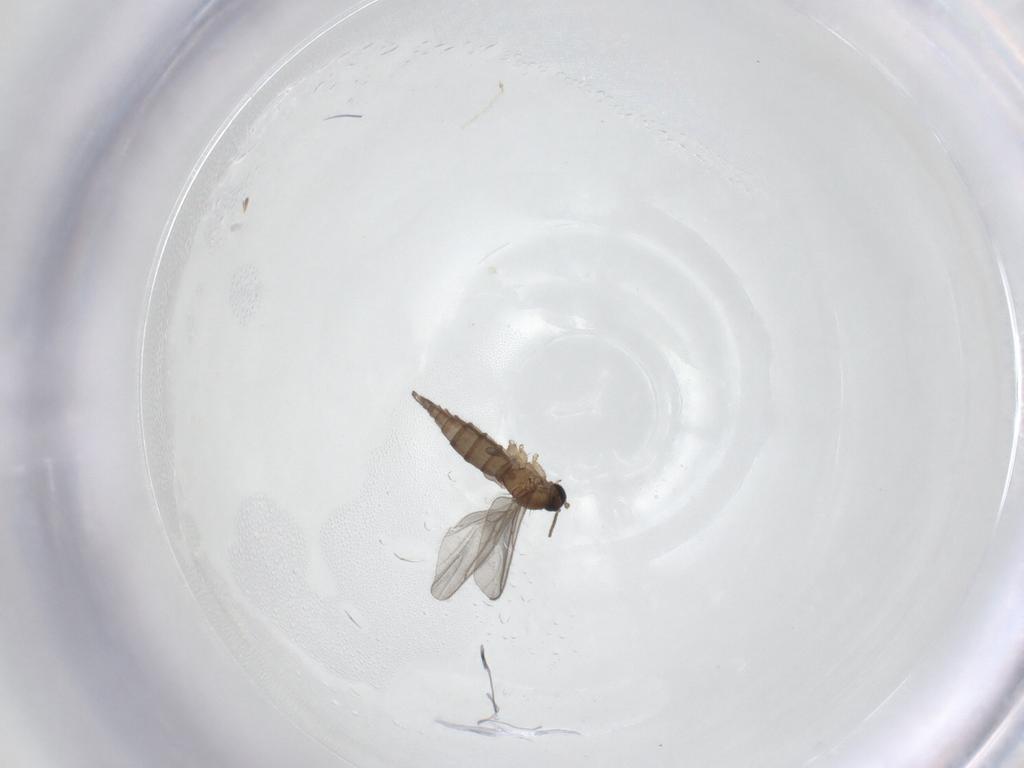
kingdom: Animalia
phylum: Arthropoda
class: Insecta
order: Diptera
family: Sciaridae
